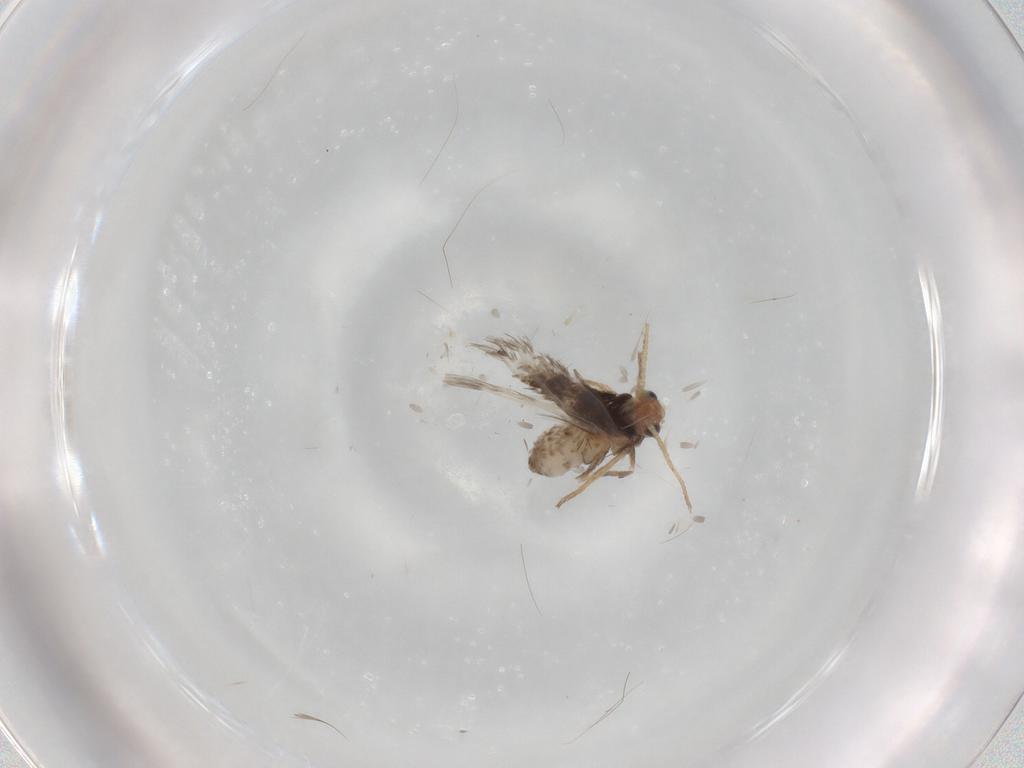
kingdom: Animalia
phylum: Arthropoda
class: Insecta
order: Lepidoptera
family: Nepticulidae
